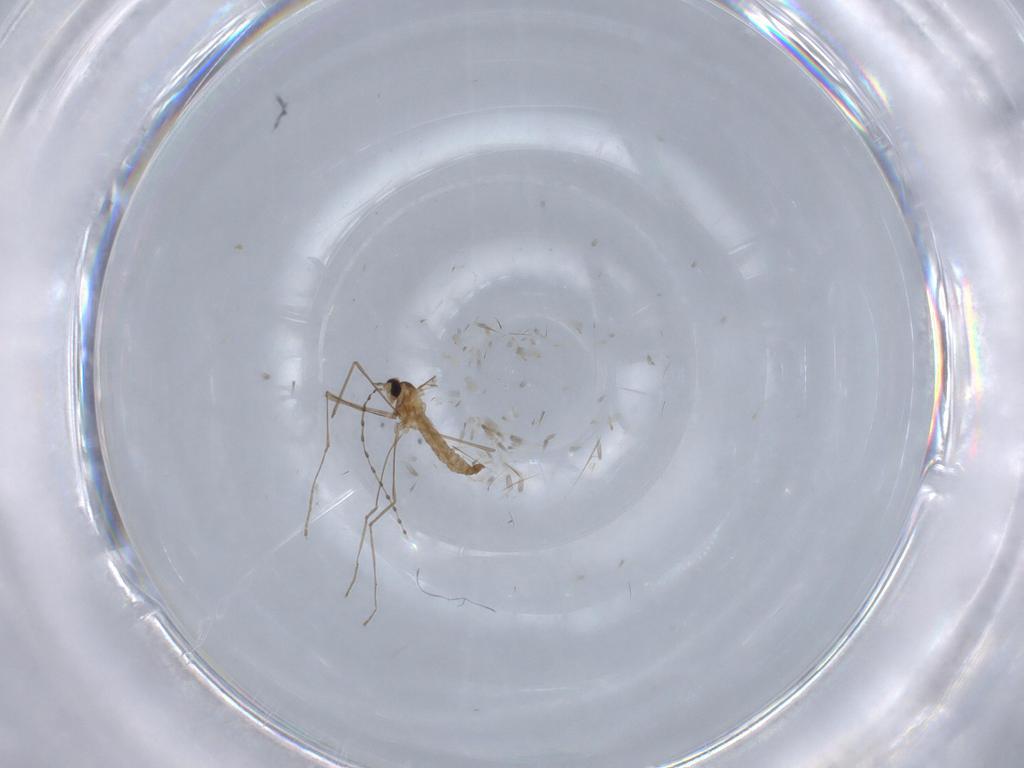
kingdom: Animalia
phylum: Arthropoda
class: Insecta
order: Diptera
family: Cecidomyiidae
